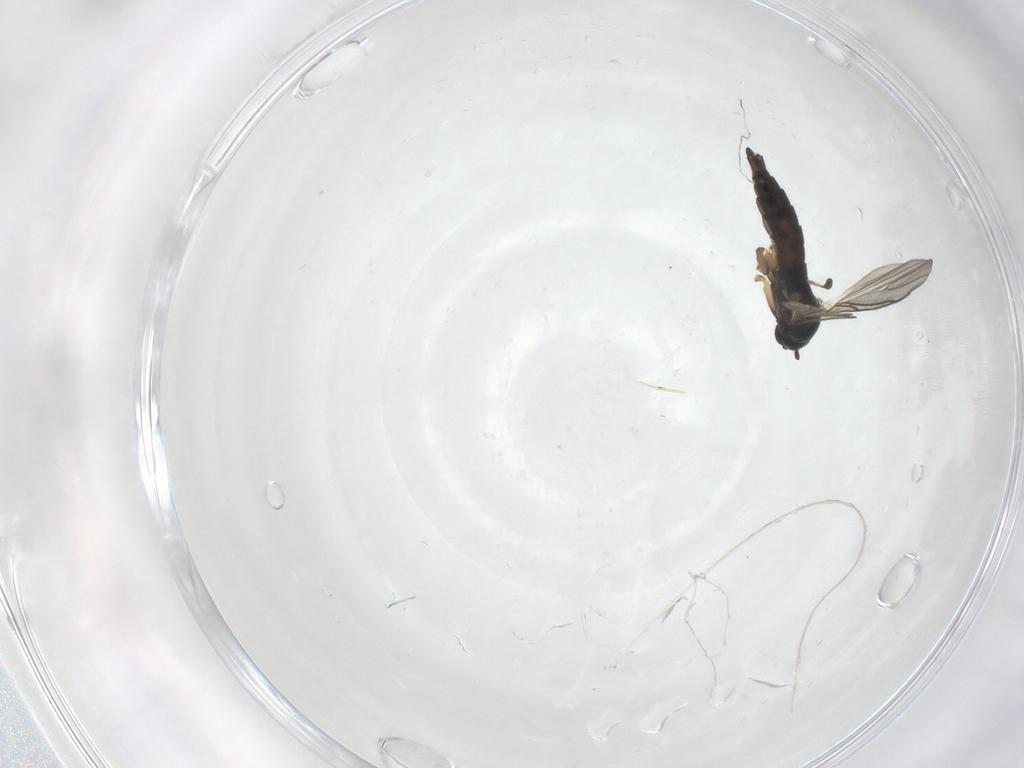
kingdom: Animalia
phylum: Arthropoda
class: Insecta
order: Diptera
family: Sciaridae
